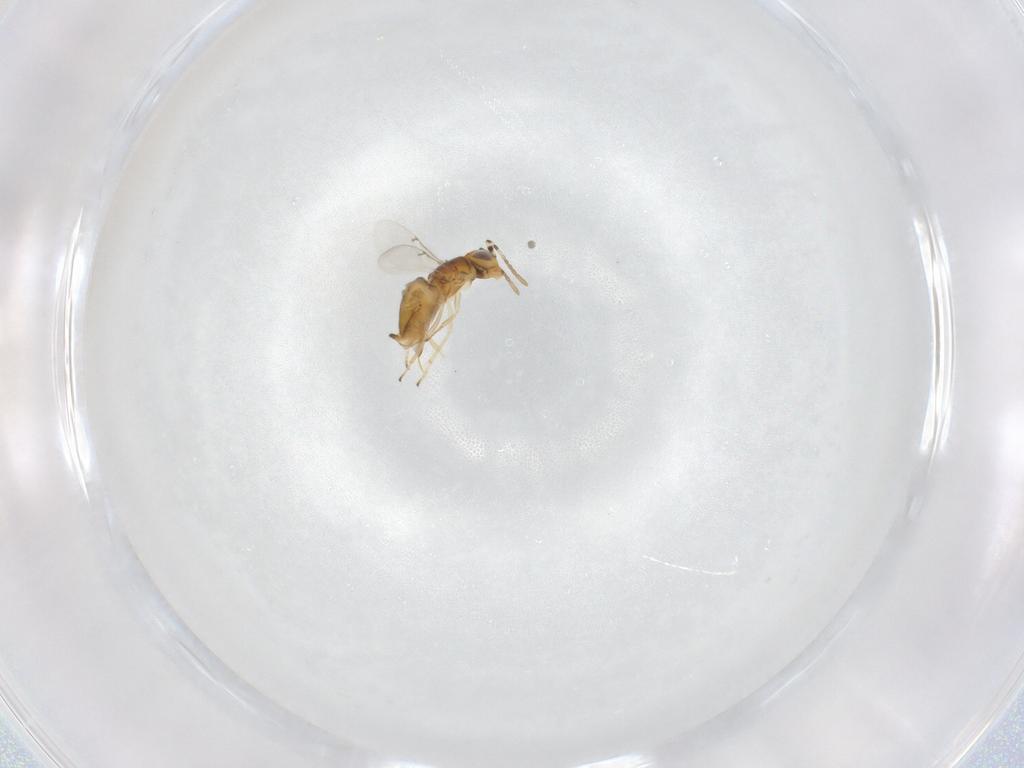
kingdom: Animalia
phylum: Arthropoda
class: Insecta
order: Hymenoptera
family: Encyrtidae
